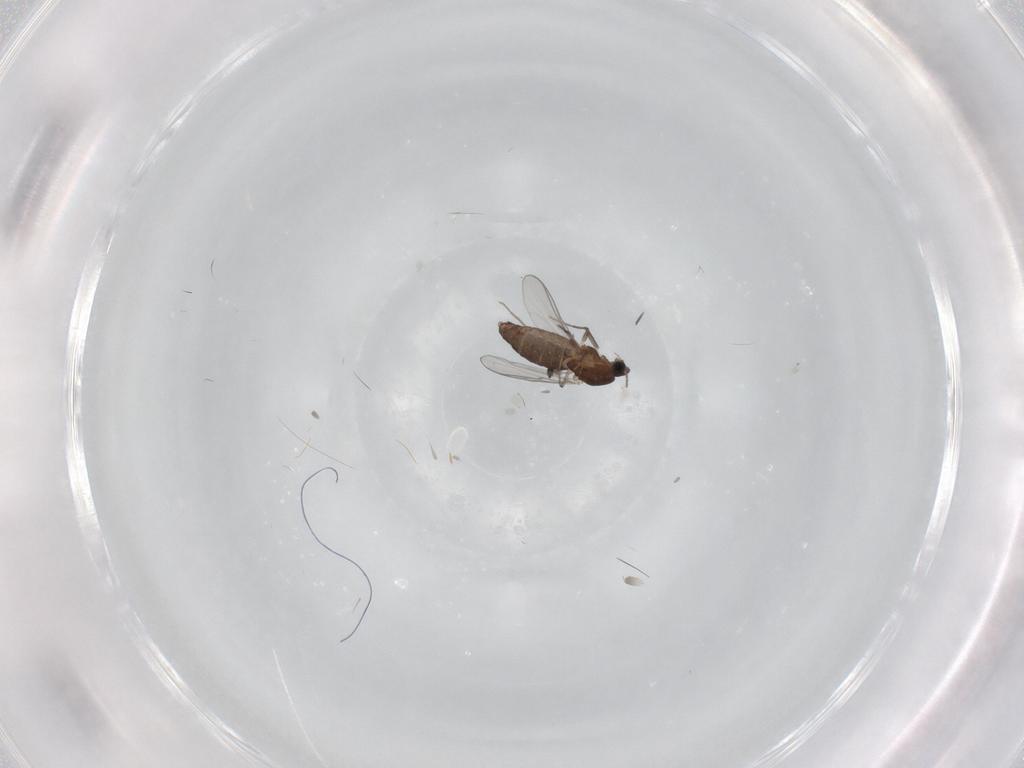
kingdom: Animalia
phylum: Arthropoda
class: Insecta
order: Diptera
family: Chironomidae
